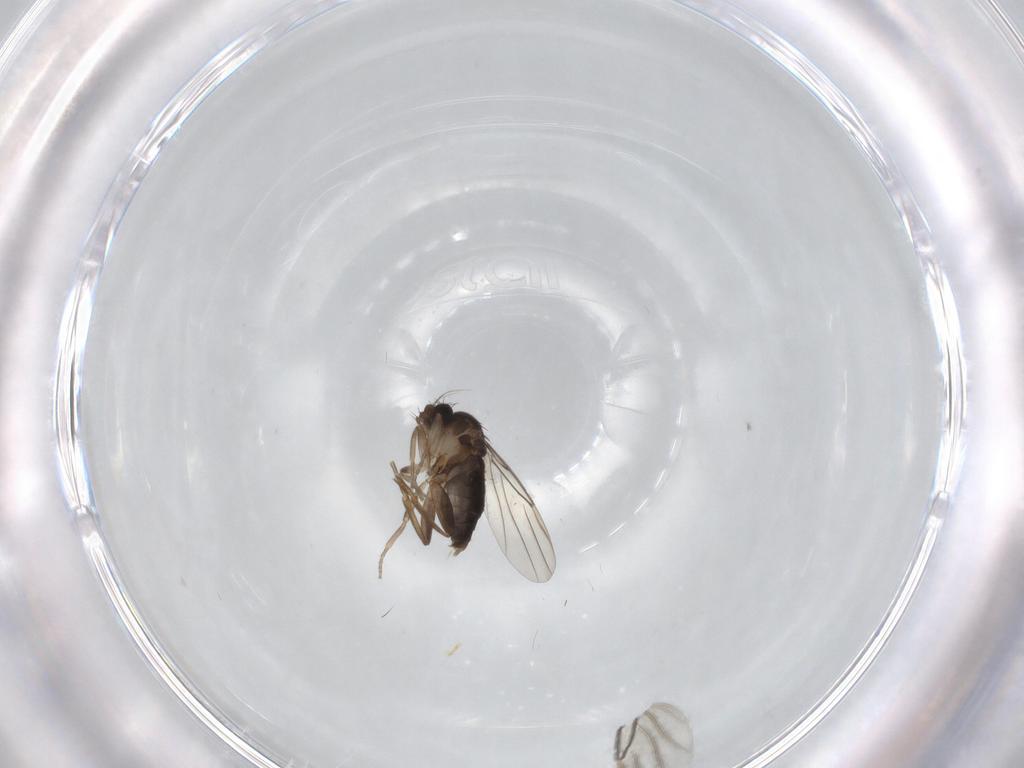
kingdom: Animalia
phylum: Arthropoda
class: Insecta
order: Diptera
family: Phoridae
